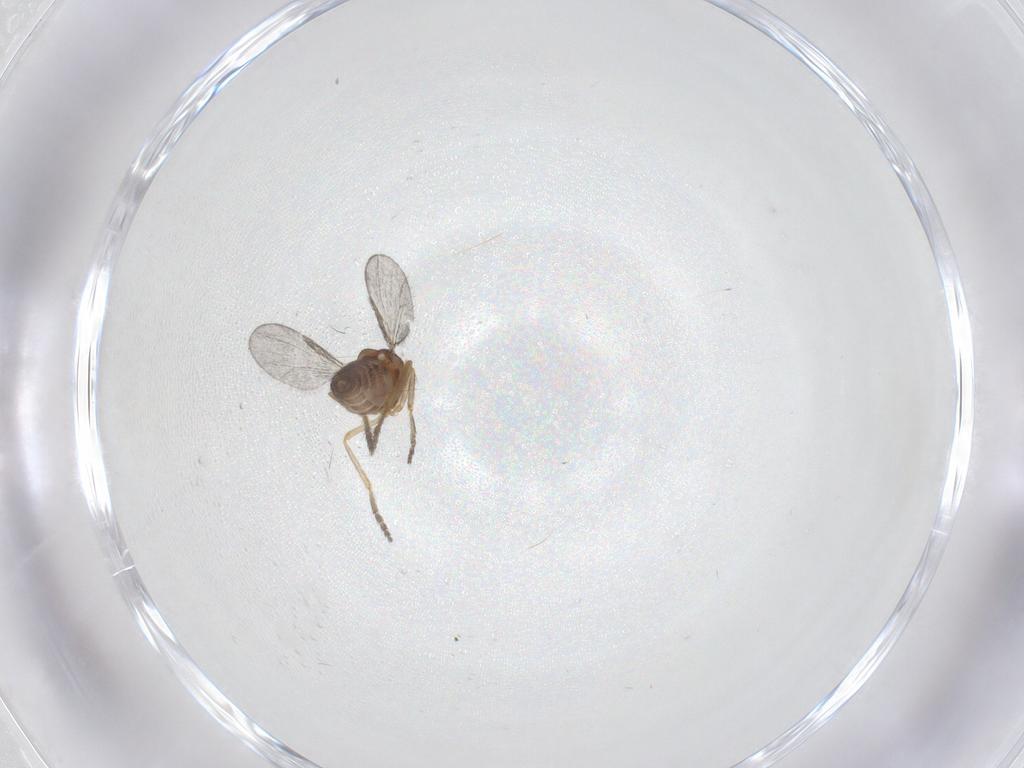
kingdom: Animalia
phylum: Arthropoda
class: Insecta
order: Diptera
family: Ceratopogonidae
